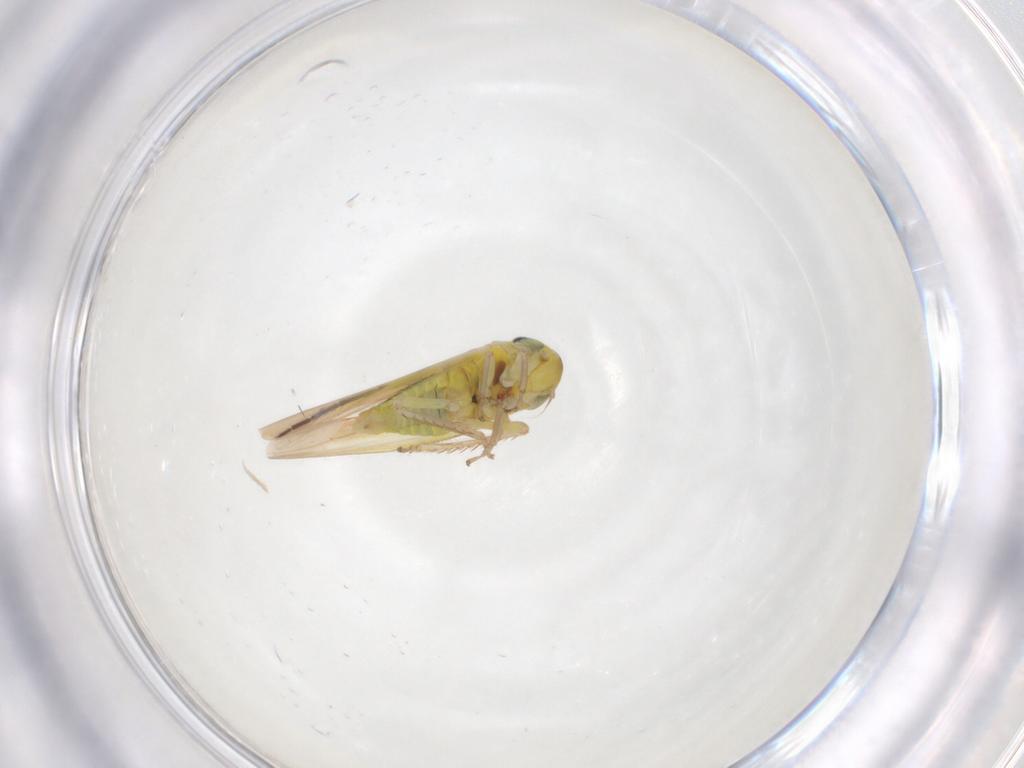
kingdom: Animalia
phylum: Arthropoda
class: Insecta
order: Hemiptera
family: Cicadellidae
